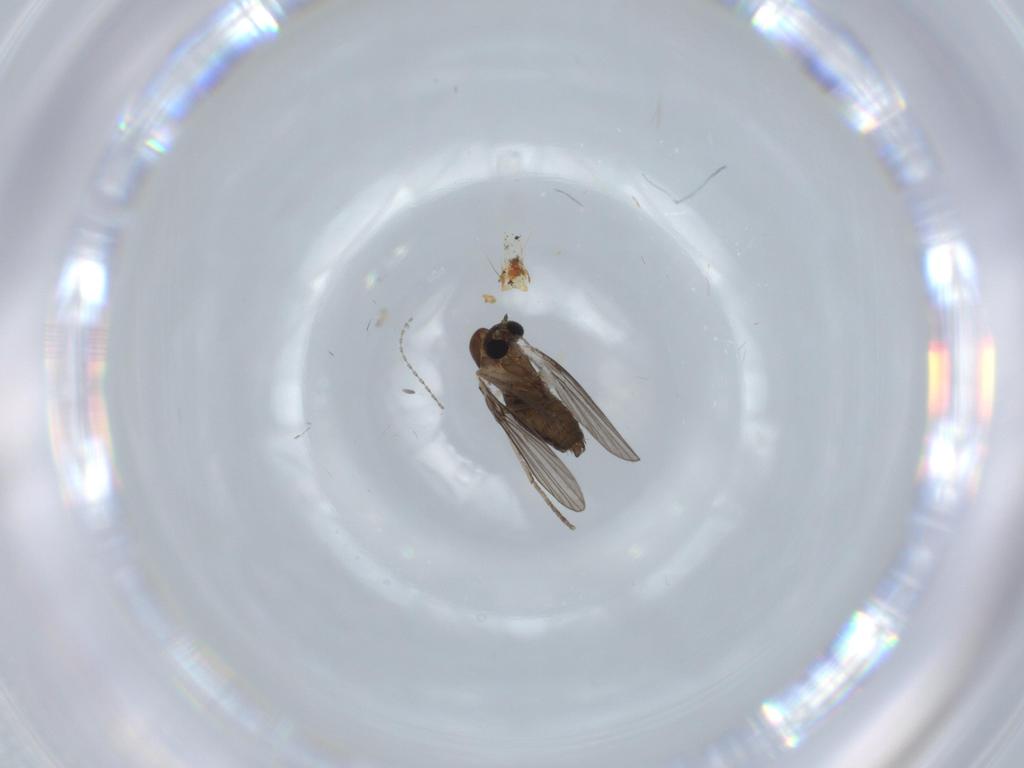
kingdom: Animalia
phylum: Arthropoda
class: Insecta
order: Diptera
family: Psychodidae
